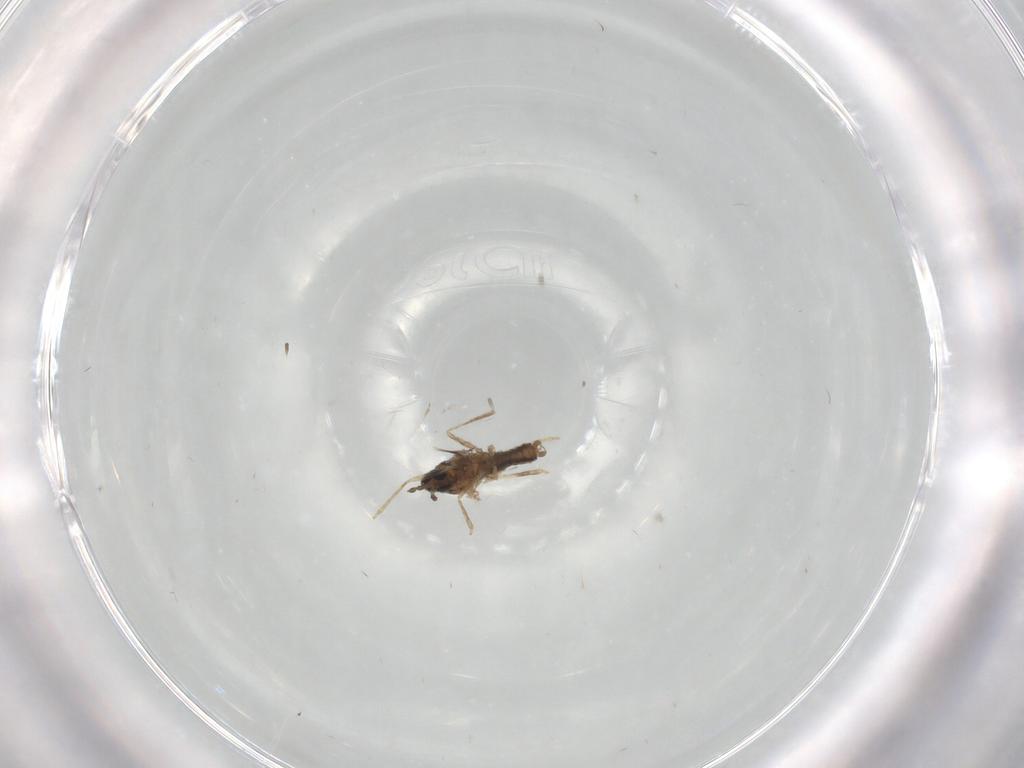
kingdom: Animalia
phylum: Arthropoda
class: Insecta
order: Diptera
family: Cecidomyiidae
